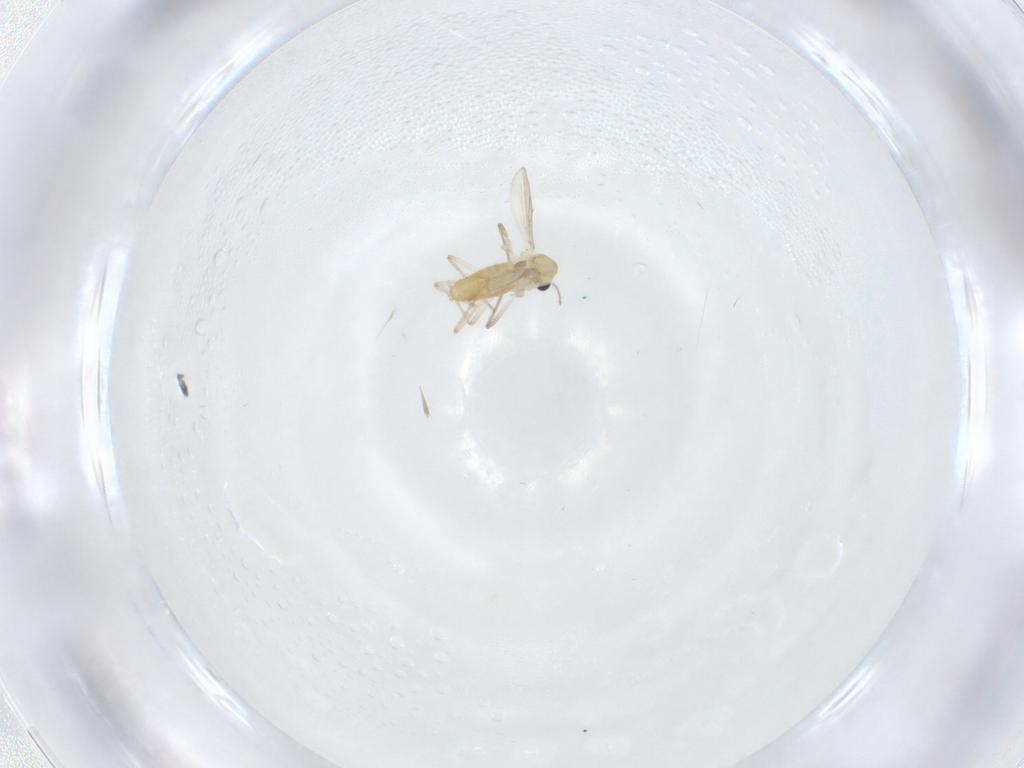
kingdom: Animalia
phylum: Arthropoda
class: Insecta
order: Diptera
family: Chironomidae
